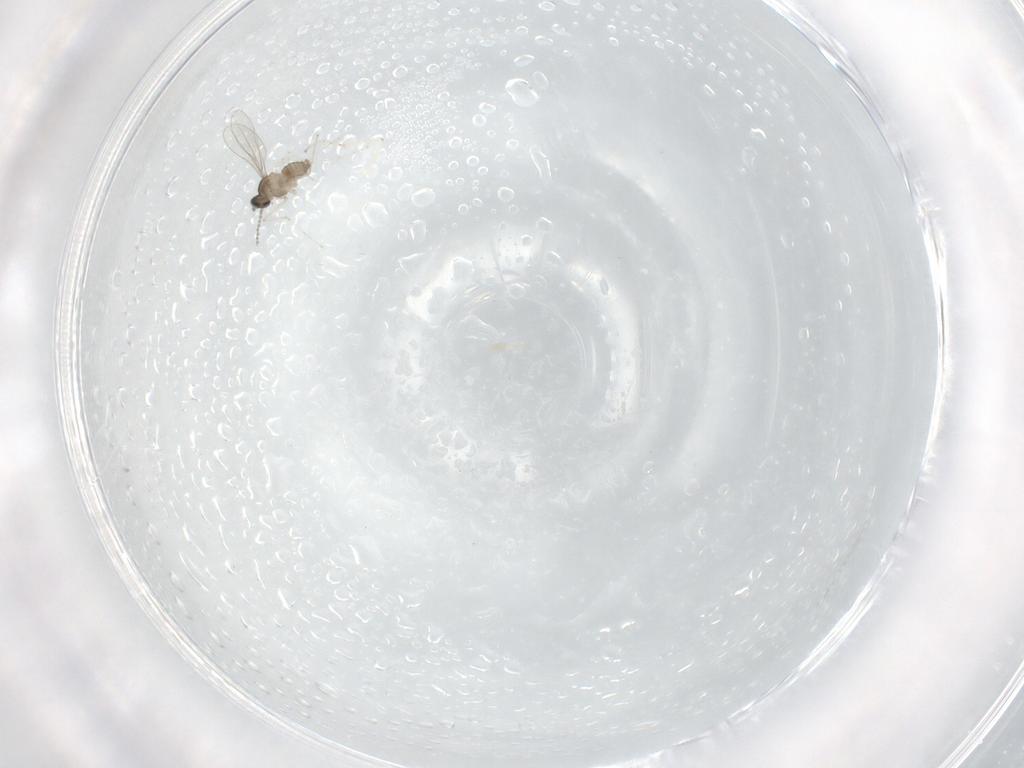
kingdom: Animalia
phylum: Arthropoda
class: Insecta
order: Diptera
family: Cecidomyiidae
